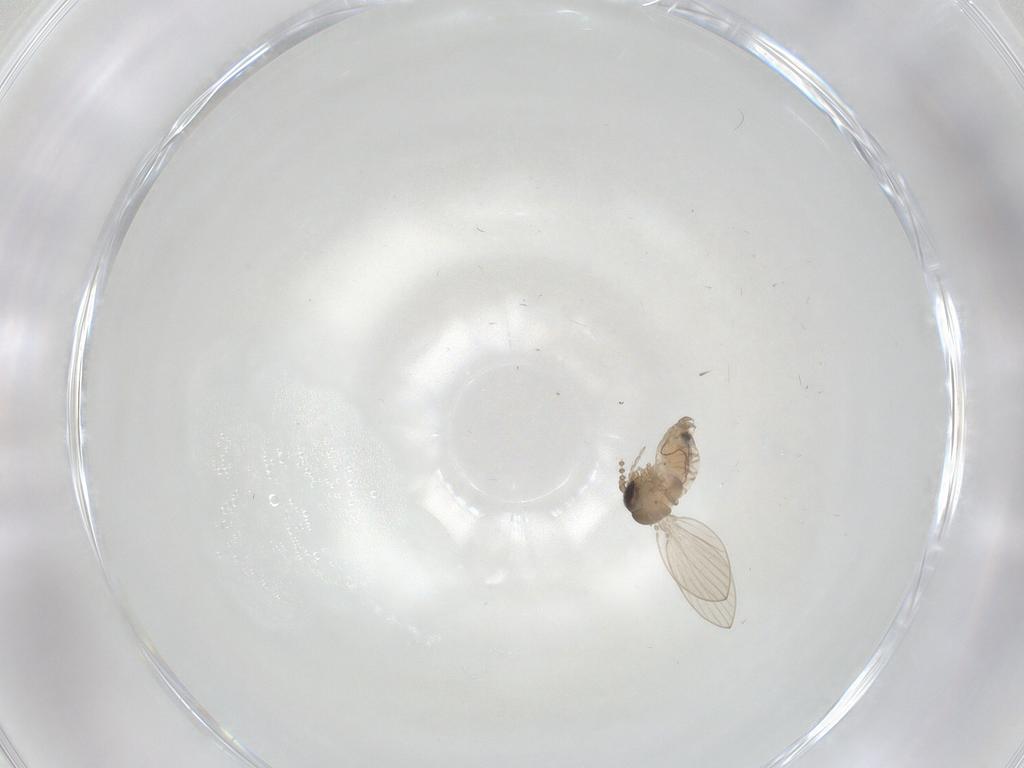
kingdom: Animalia
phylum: Arthropoda
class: Insecta
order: Diptera
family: Psychodidae
